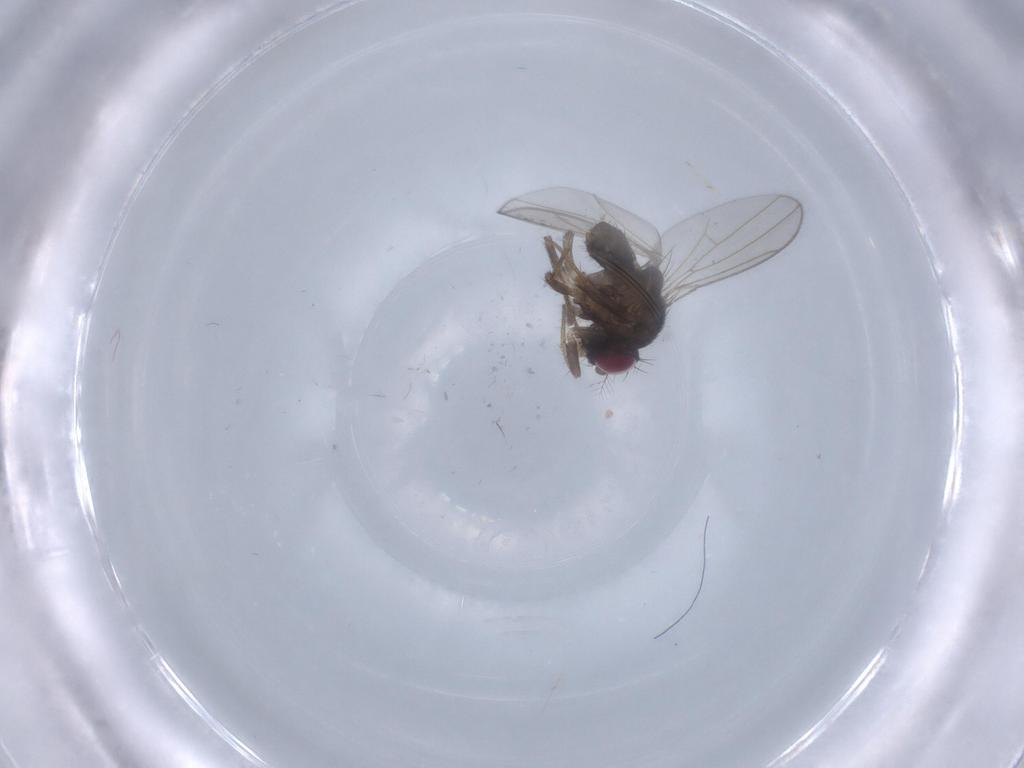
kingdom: Animalia
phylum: Arthropoda
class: Insecta
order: Diptera
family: Drosophilidae
